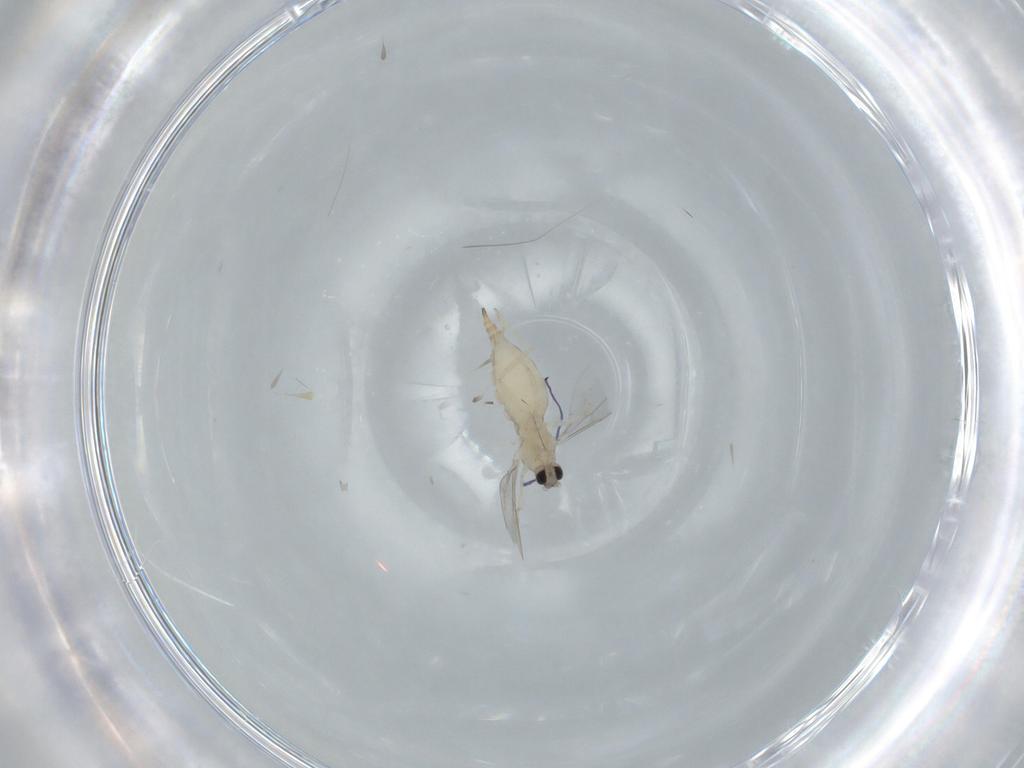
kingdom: Animalia
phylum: Arthropoda
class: Insecta
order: Diptera
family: Cecidomyiidae
